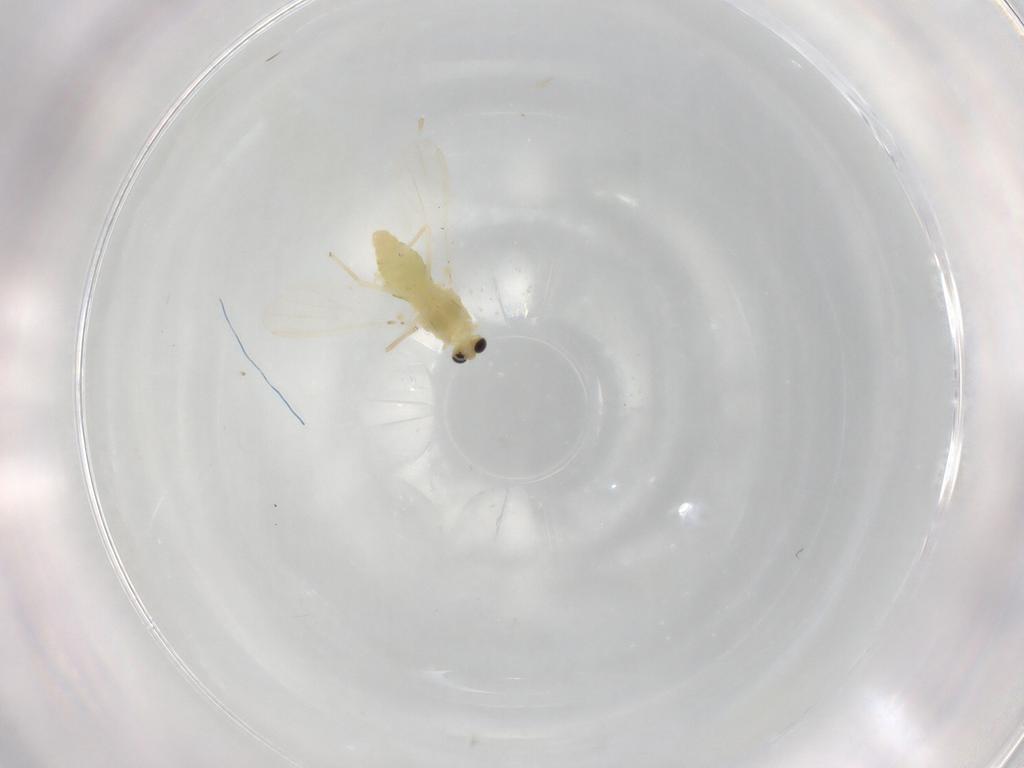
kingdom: Animalia
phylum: Arthropoda
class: Insecta
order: Diptera
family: Chironomidae
